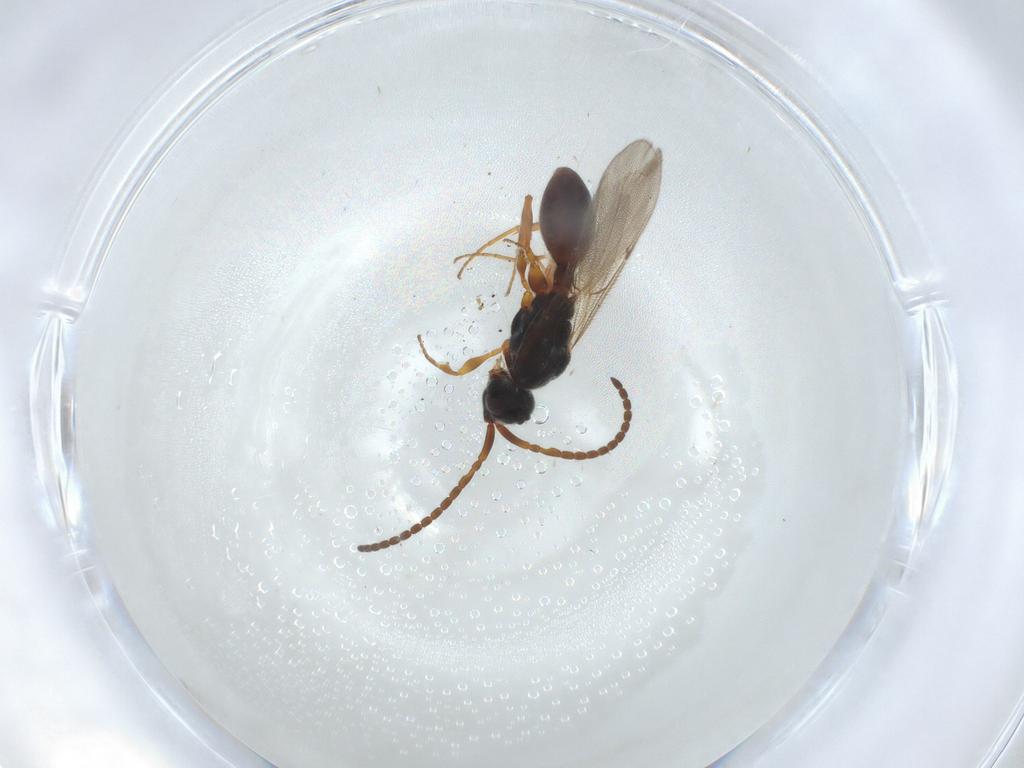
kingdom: Animalia
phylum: Arthropoda
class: Insecta
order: Hymenoptera
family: Diapriidae
